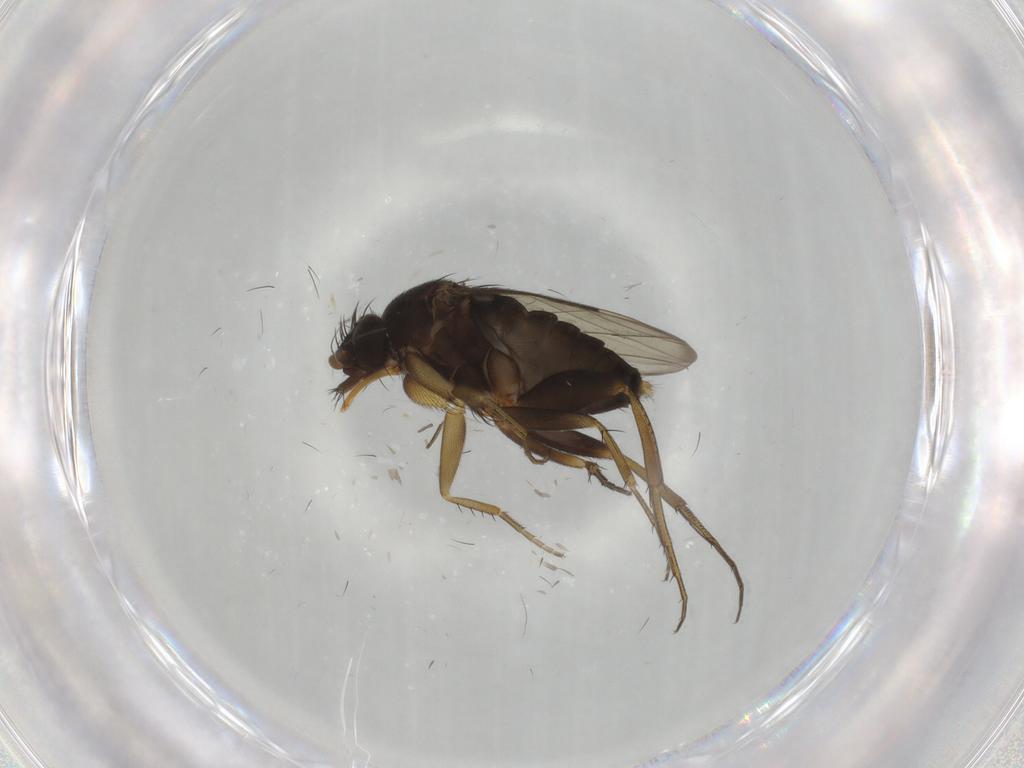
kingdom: Animalia
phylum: Arthropoda
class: Insecta
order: Diptera
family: Phoridae
